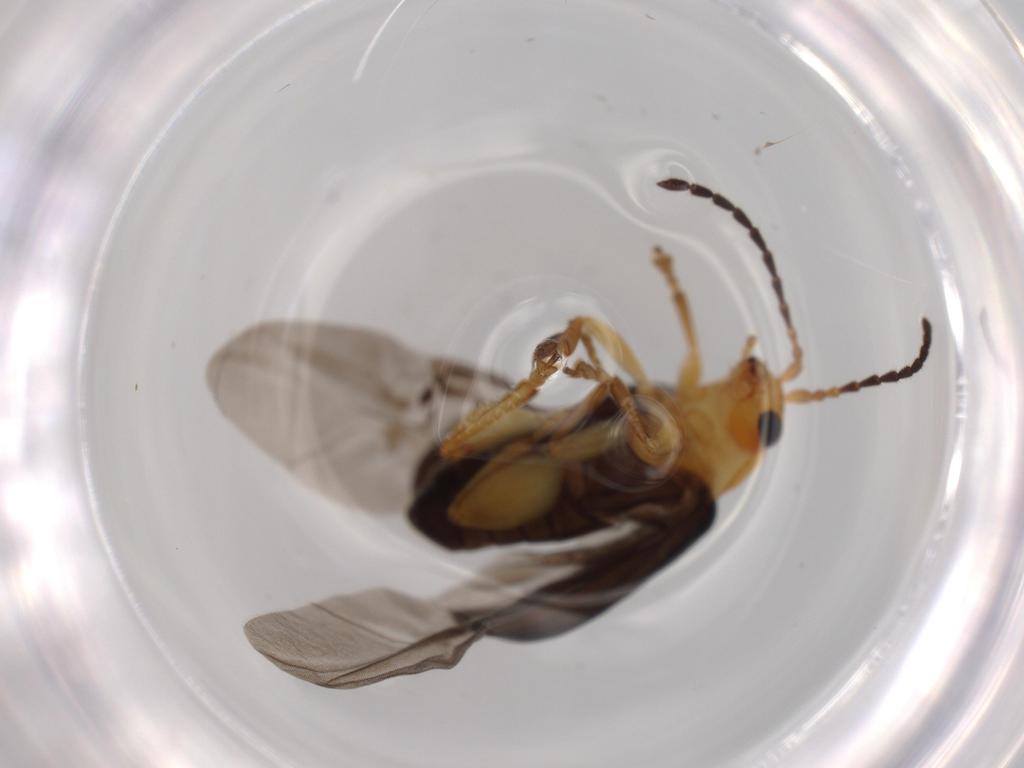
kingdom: Animalia
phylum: Arthropoda
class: Insecta
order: Coleoptera
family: Chrysomelidae
